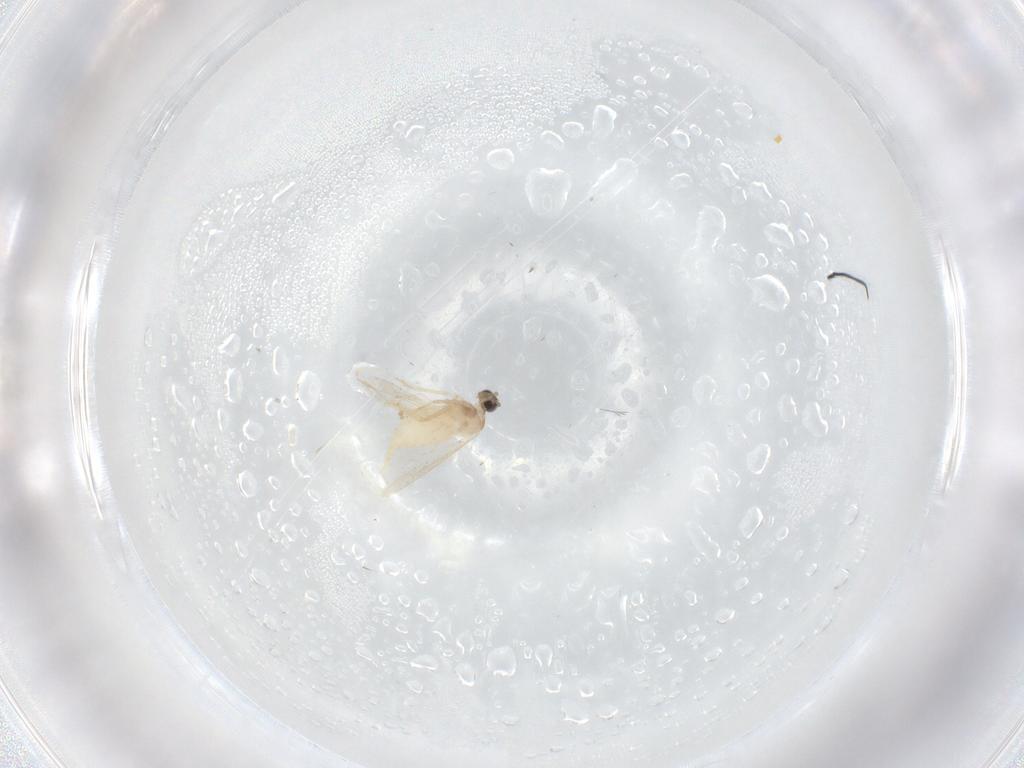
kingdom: Animalia
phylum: Arthropoda
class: Insecta
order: Diptera
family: Cecidomyiidae
